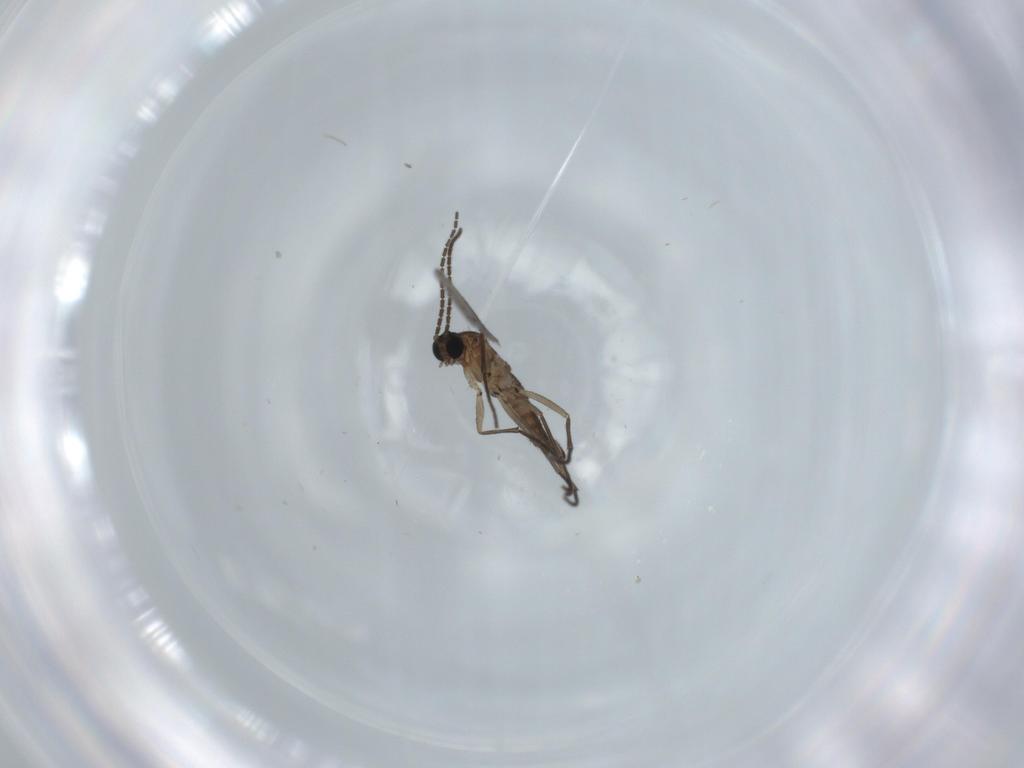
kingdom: Animalia
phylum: Arthropoda
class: Insecta
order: Diptera
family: Sciaridae
